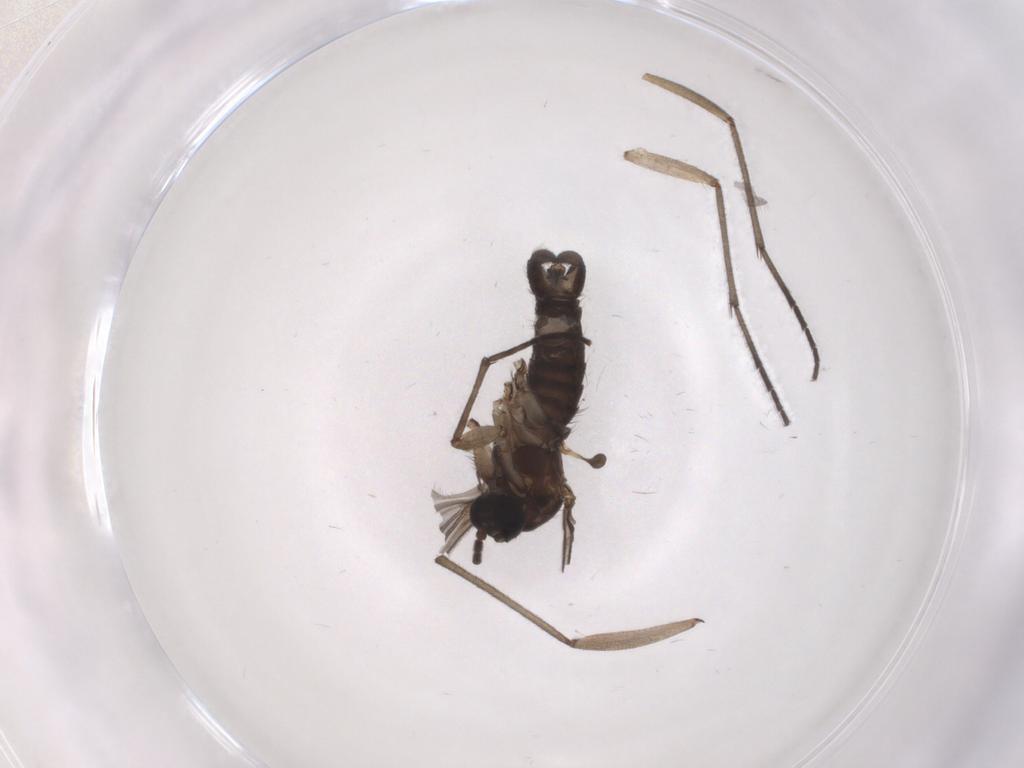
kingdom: Animalia
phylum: Arthropoda
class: Insecta
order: Diptera
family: Sciaridae
